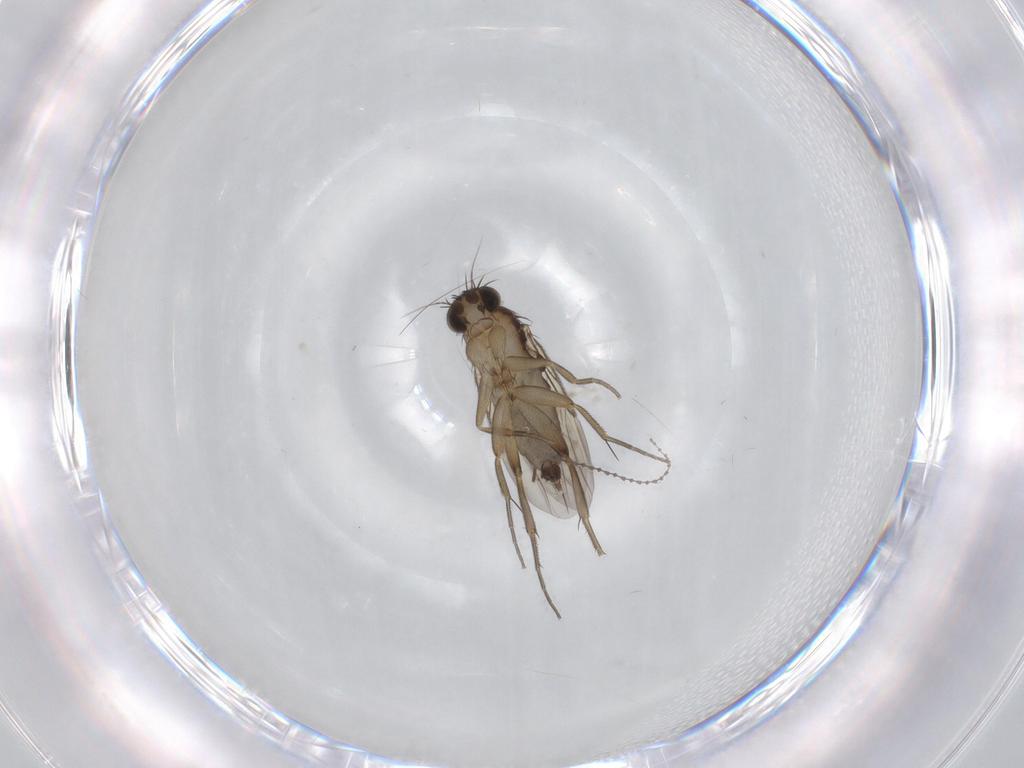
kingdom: Animalia
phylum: Arthropoda
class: Insecta
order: Diptera
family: Phoridae
